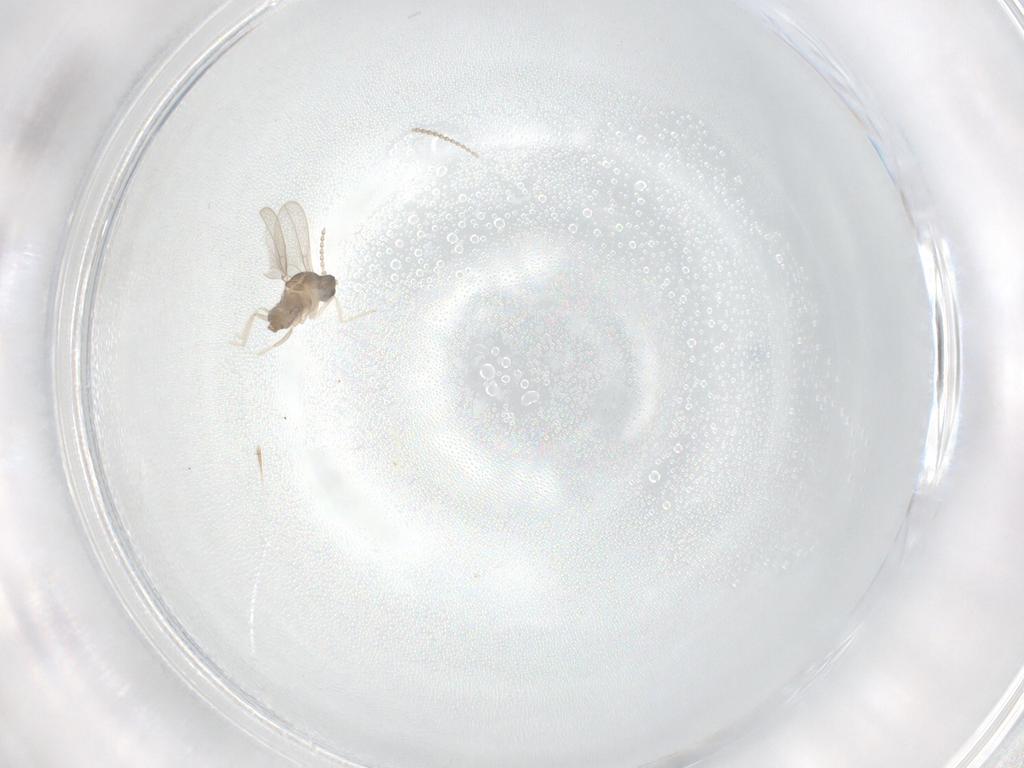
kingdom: Animalia
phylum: Arthropoda
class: Insecta
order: Diptera
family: Cecidomyiidae
